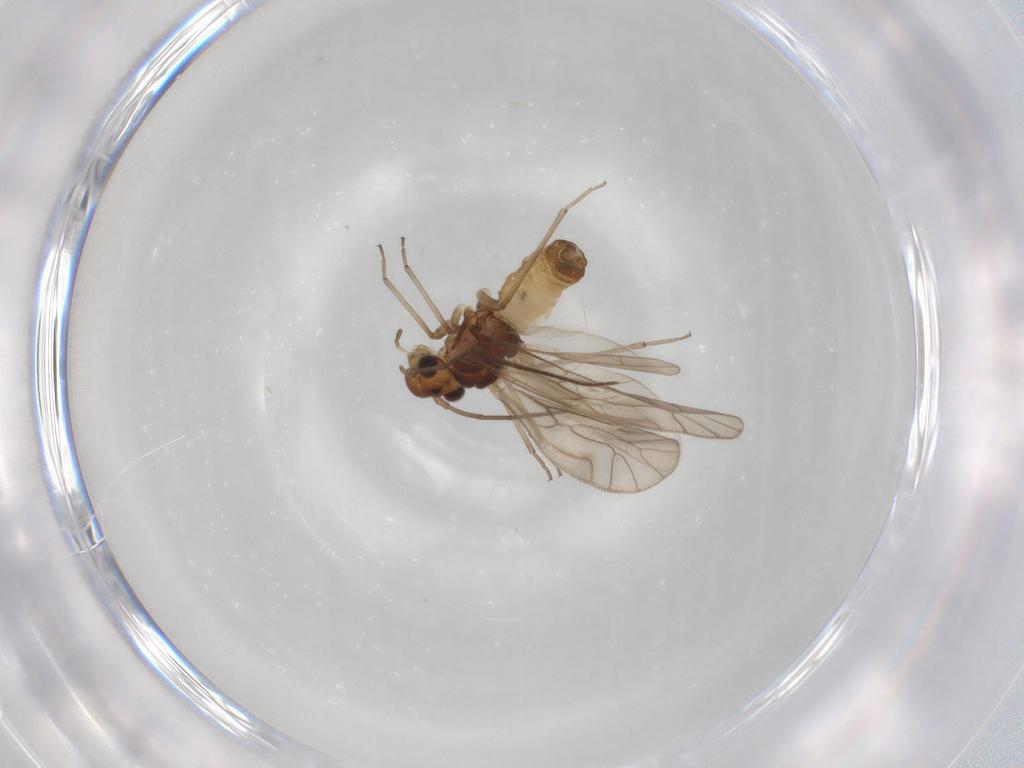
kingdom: Animalia
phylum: Arthropoda
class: Insecta
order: Psocodea
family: Philotarsidae
